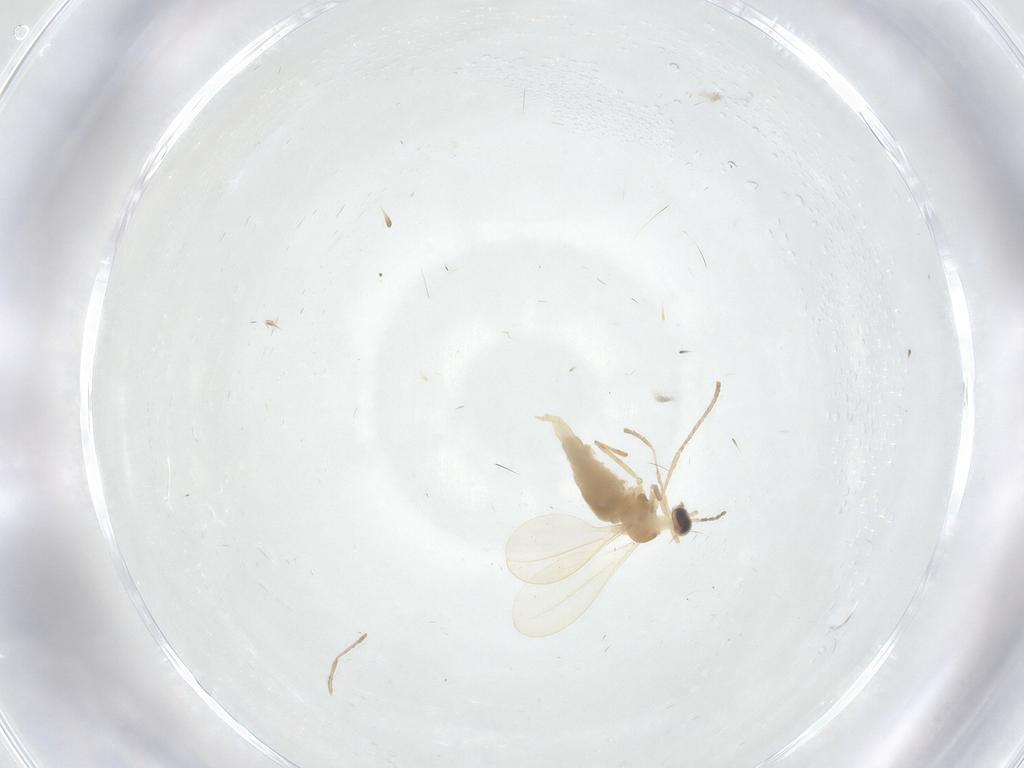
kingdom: Animalia
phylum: Arthropoda
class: Insecta
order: Diptera
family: Cecidomyiidae
